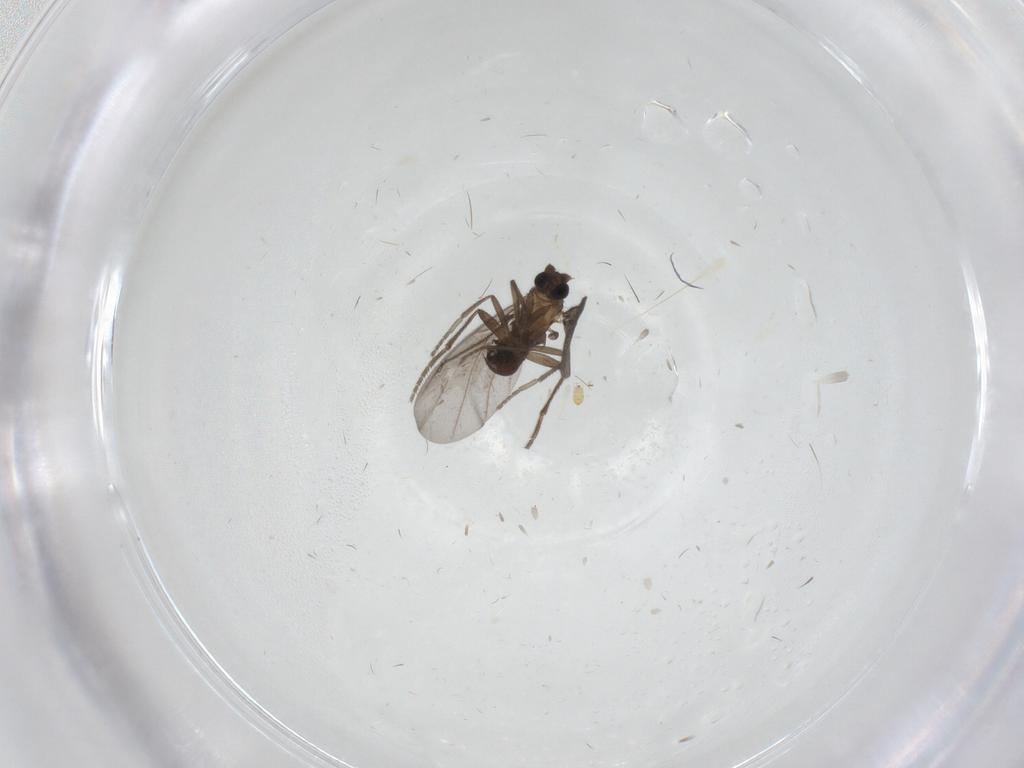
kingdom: Animalia
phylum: Arthropoda
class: Insecta
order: Diptera
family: Phoridae
